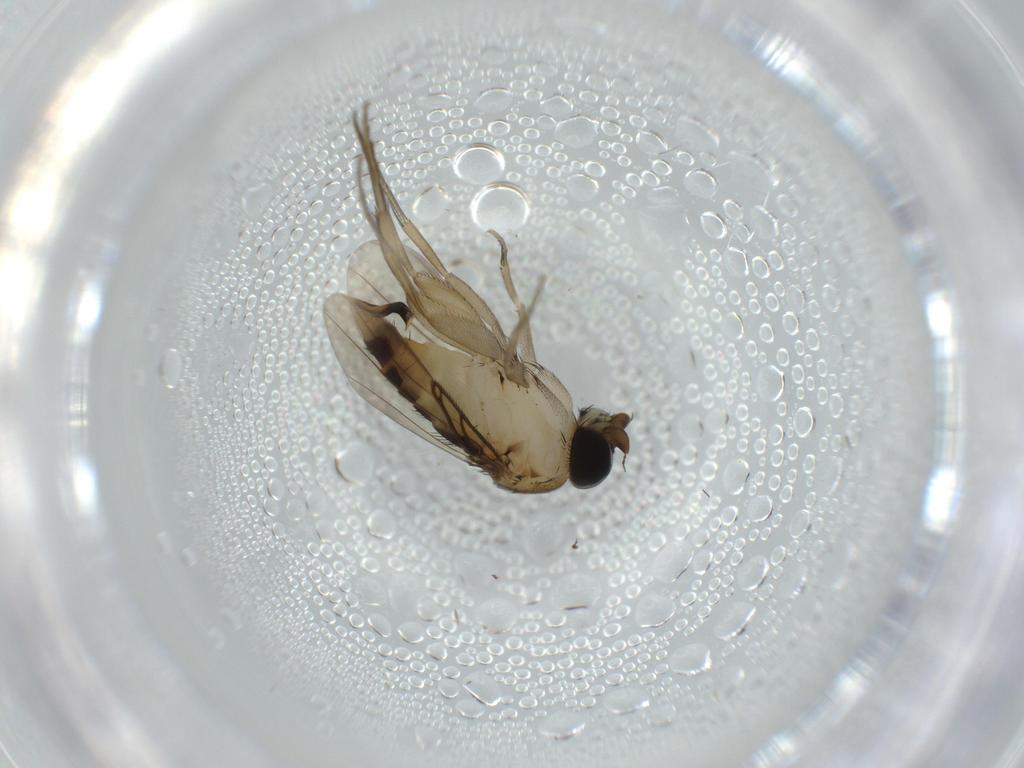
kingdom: Animalia
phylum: Arthropoda
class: Insecta
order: Diptera
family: Phoridae
